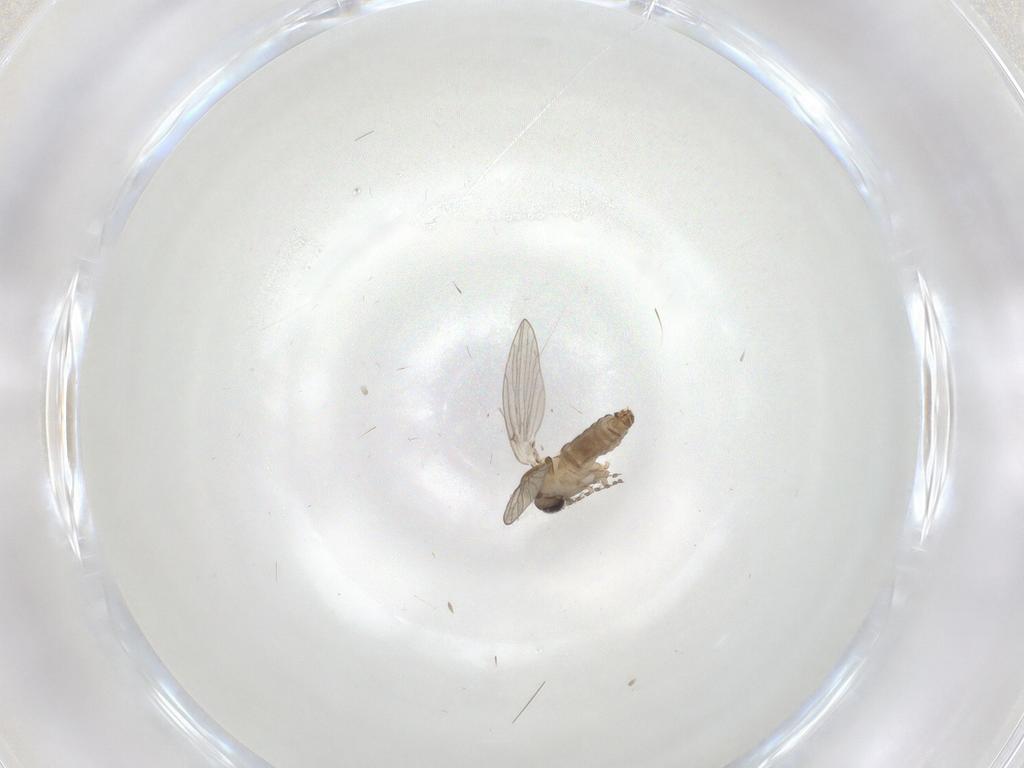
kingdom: Animalia
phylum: Arthropoda
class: Insecta
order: Diptera
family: Psychodidae
